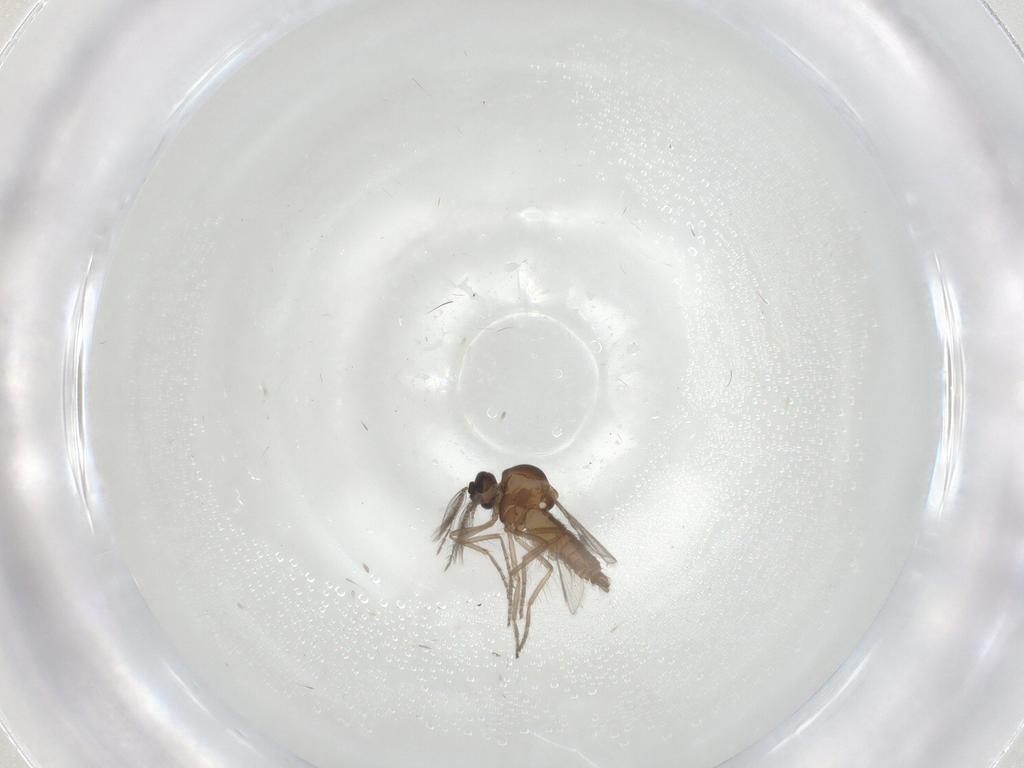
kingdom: Animalia
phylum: Arthropoda
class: Insecta
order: Diptera
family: Ceratopogonidae
